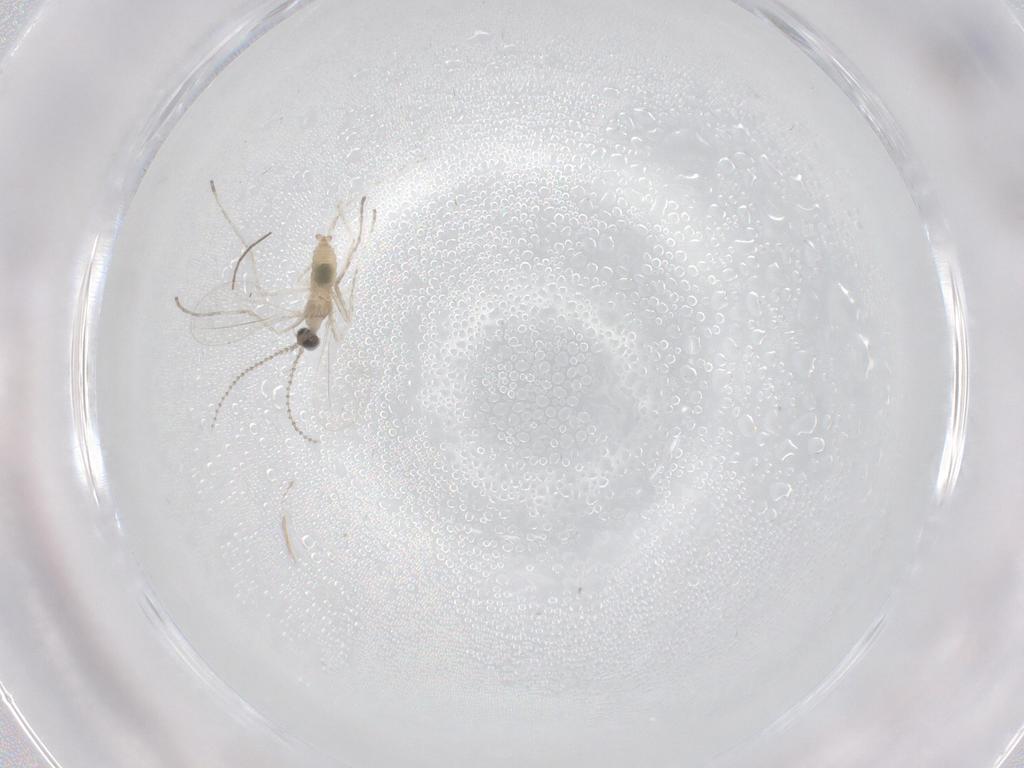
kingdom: Animalia
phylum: Arthropoda
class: Insecta
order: Diptera
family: Cecidomyiidae
